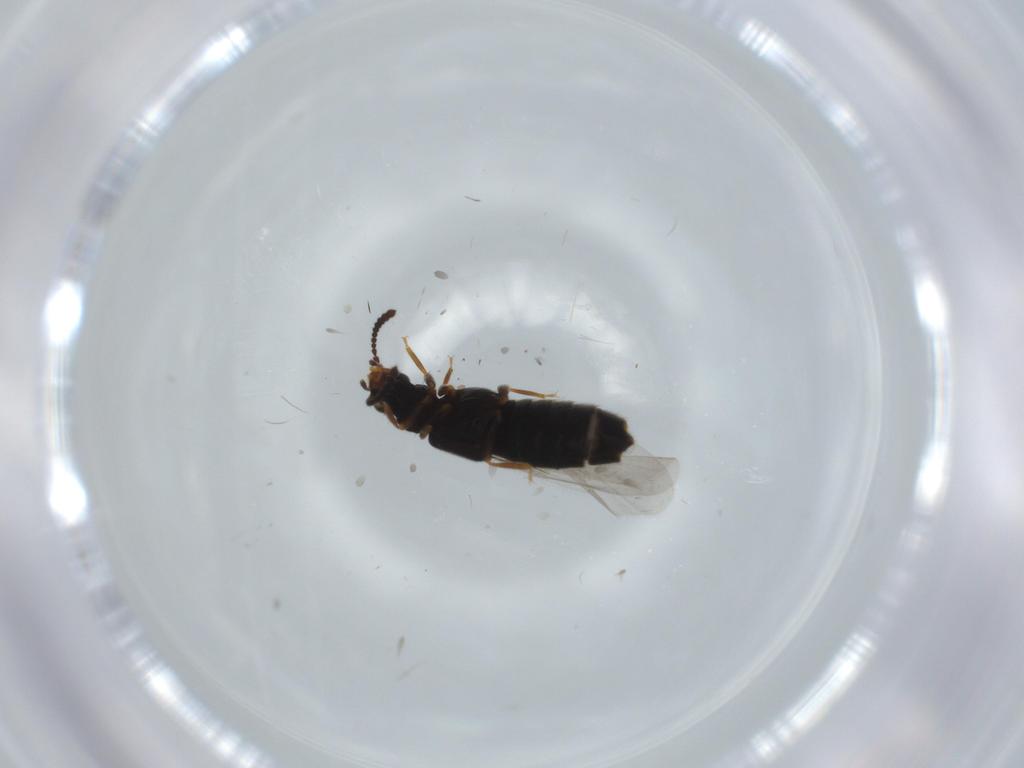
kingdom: Animalia
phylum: Arthropoda
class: Insecta
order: Coleoptera
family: Staphylinidae
